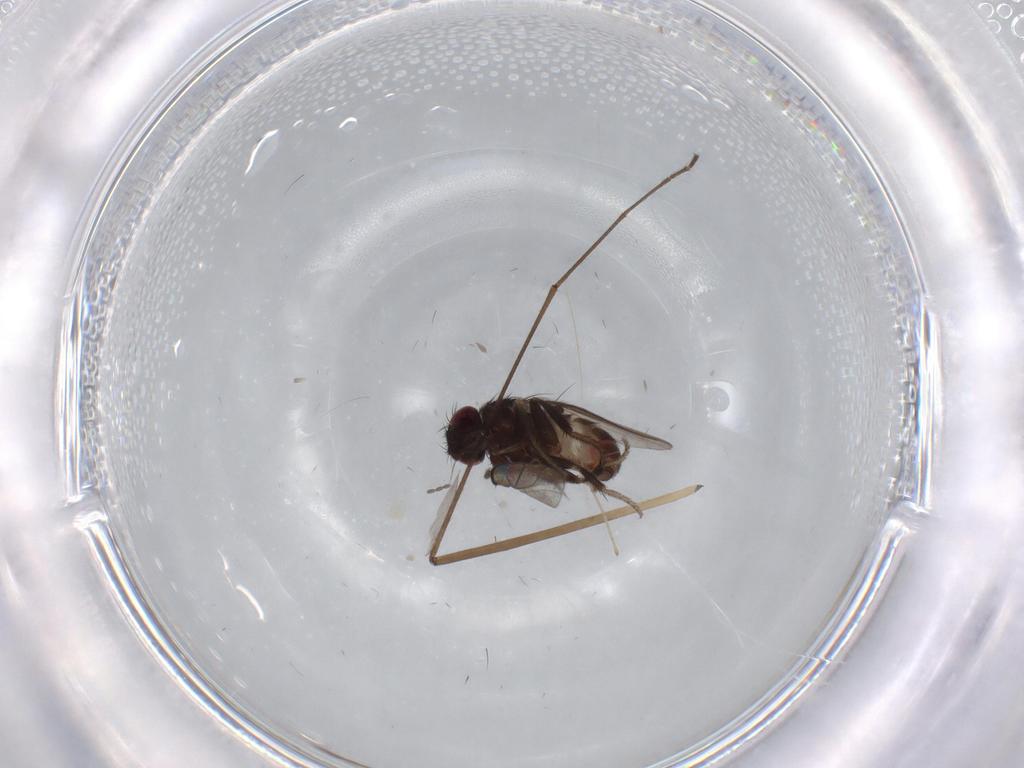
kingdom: Animalia
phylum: Arthropoda
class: Insecta
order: Diptera
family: Milichiidae
